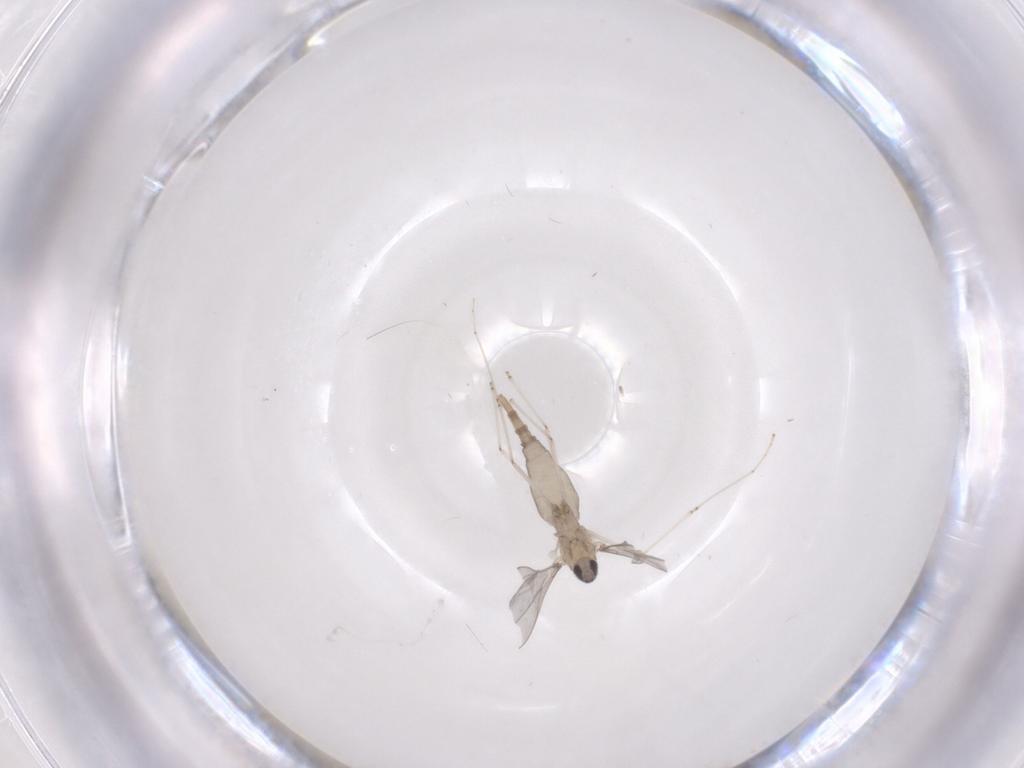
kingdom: Animalia
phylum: Arthropoda
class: Insecta
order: Diptera
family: Cecidomyiidae
